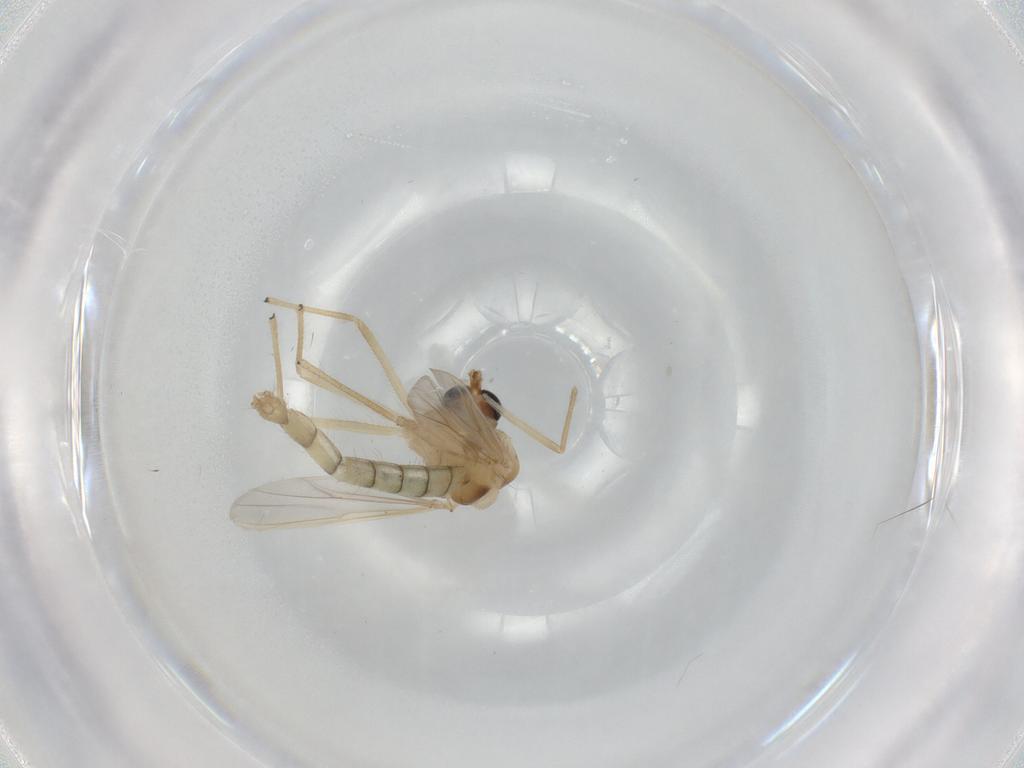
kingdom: Animalia
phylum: Arthropoda
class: Insecta
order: Diptera
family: Chironomidae
